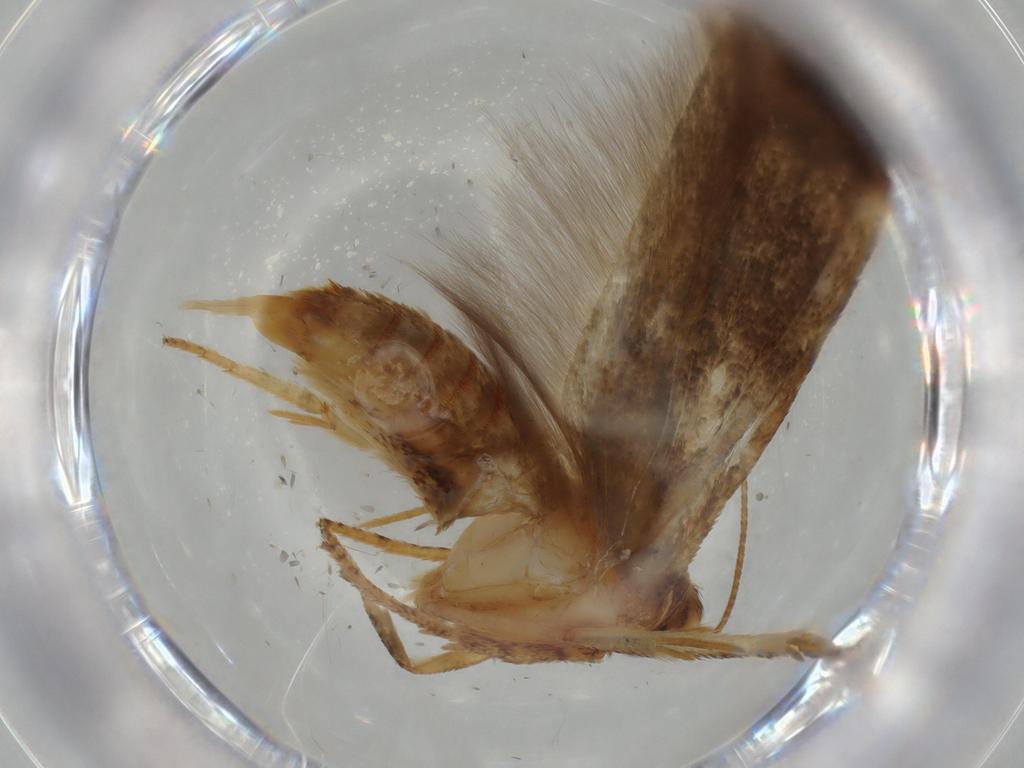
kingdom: Animalia
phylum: Arthropoda
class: Insecta
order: Lepidoptera
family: Blastobasidae
